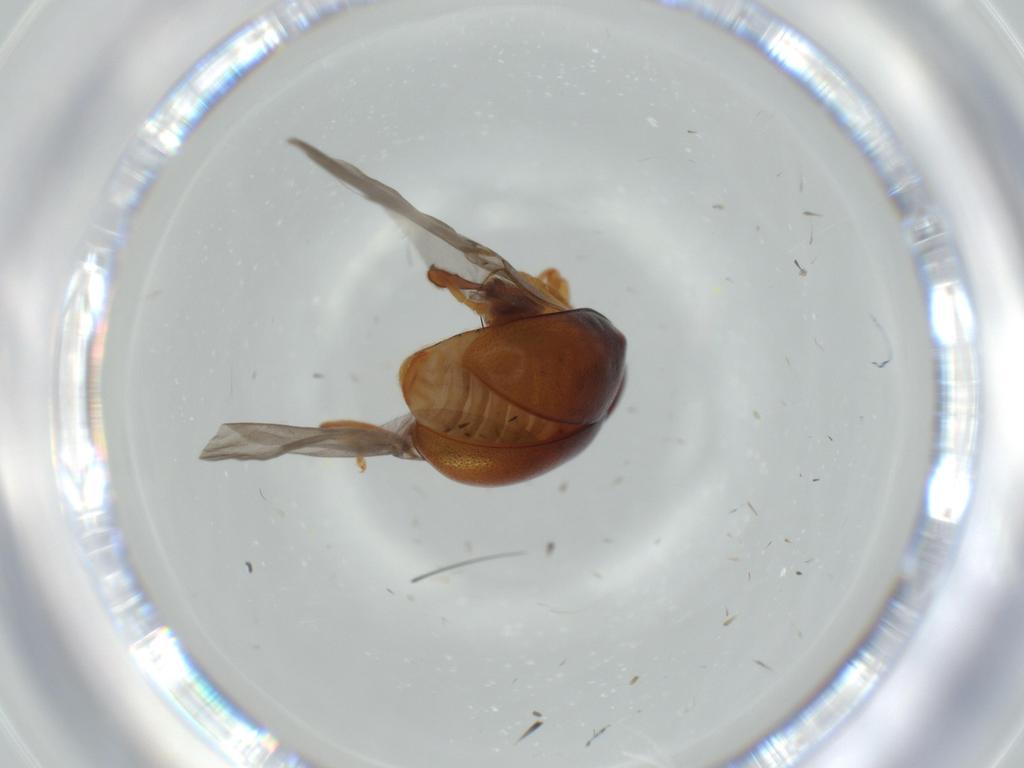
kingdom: Animalia
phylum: Arthropoda
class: Insecta
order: Coleoptera
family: Chrysomelidae
